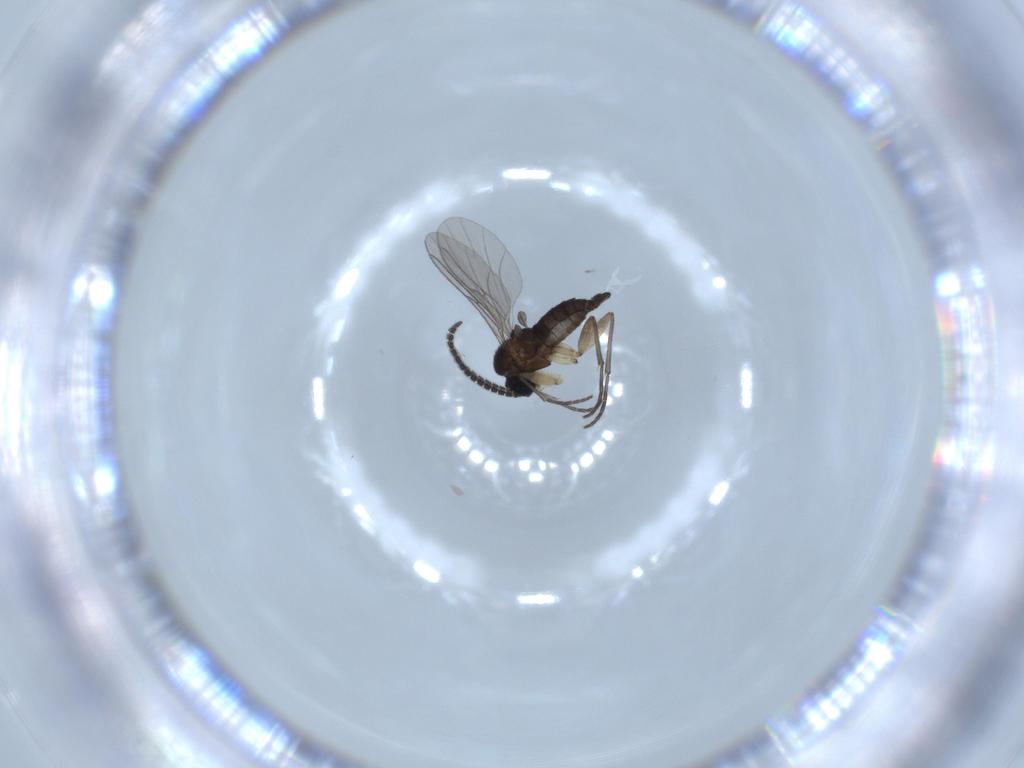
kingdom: Animalia
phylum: Arthropoda
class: Insecta
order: Diptera
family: Sciaridae
